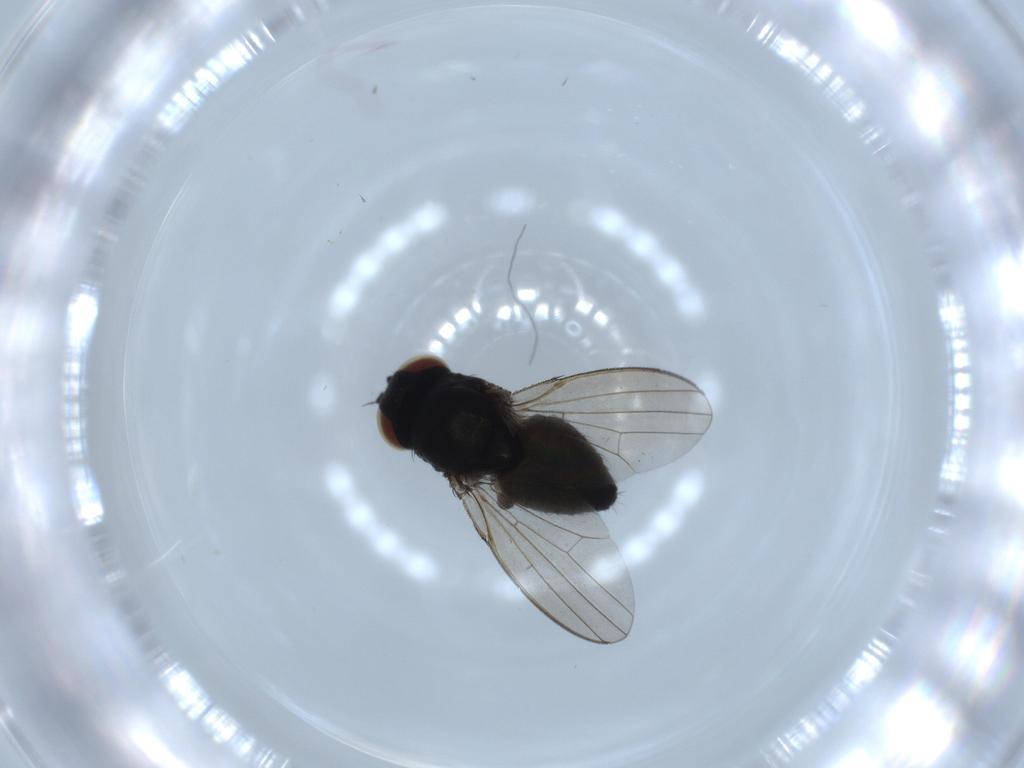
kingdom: Animalia
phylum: Arthropoda
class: Insecta
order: Diptera
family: Milichiidae
